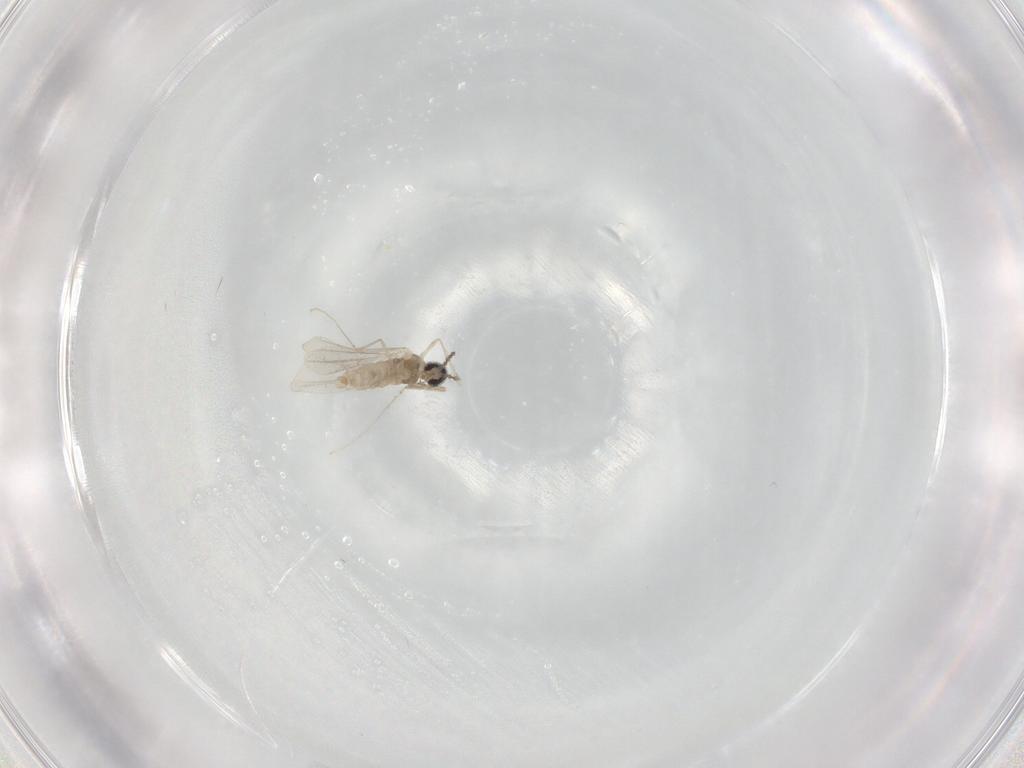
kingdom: Animalia
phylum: Arthropoda
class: Insecta
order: Diptera
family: Cecidomyiidae
